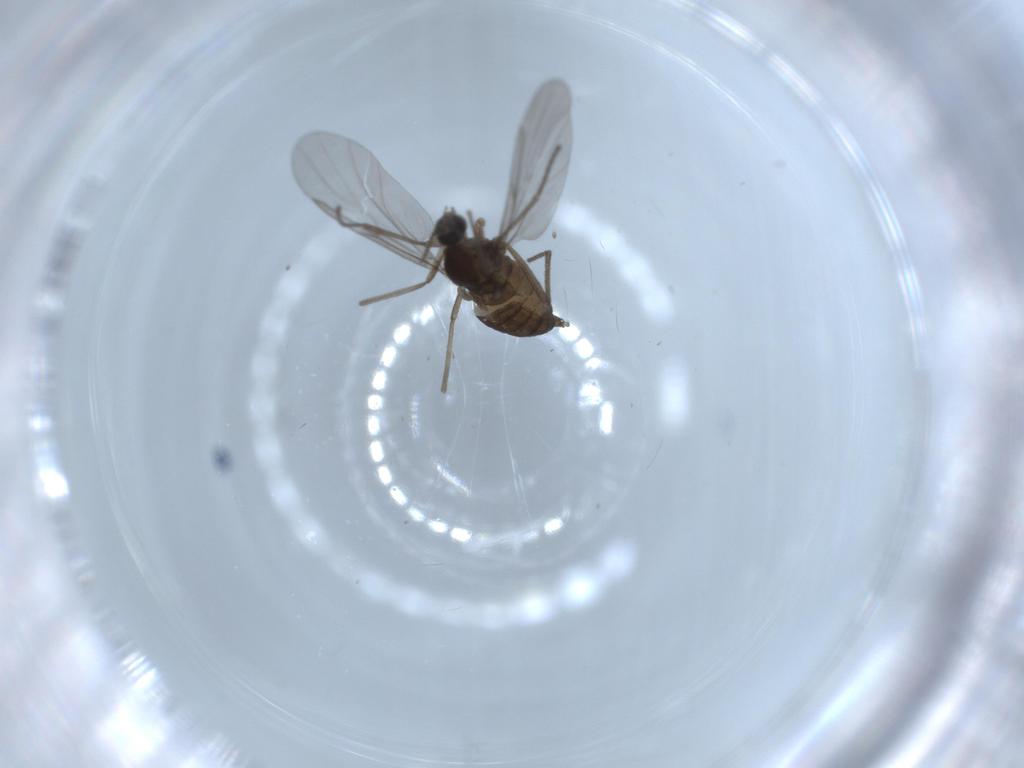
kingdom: Animalia
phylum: Arthropoda
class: Insecta
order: Diptera
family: Cecidomyiidae
